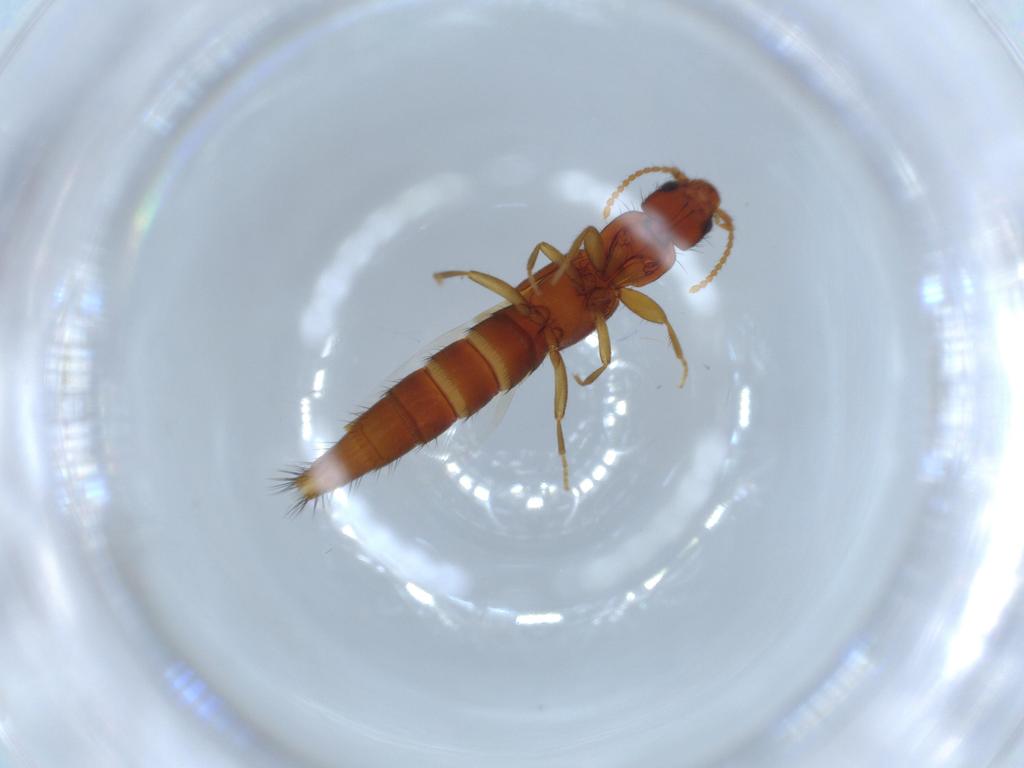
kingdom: Animalia
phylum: Arthropoda
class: Insecta
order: Coleoptera
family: Staphylinidae
